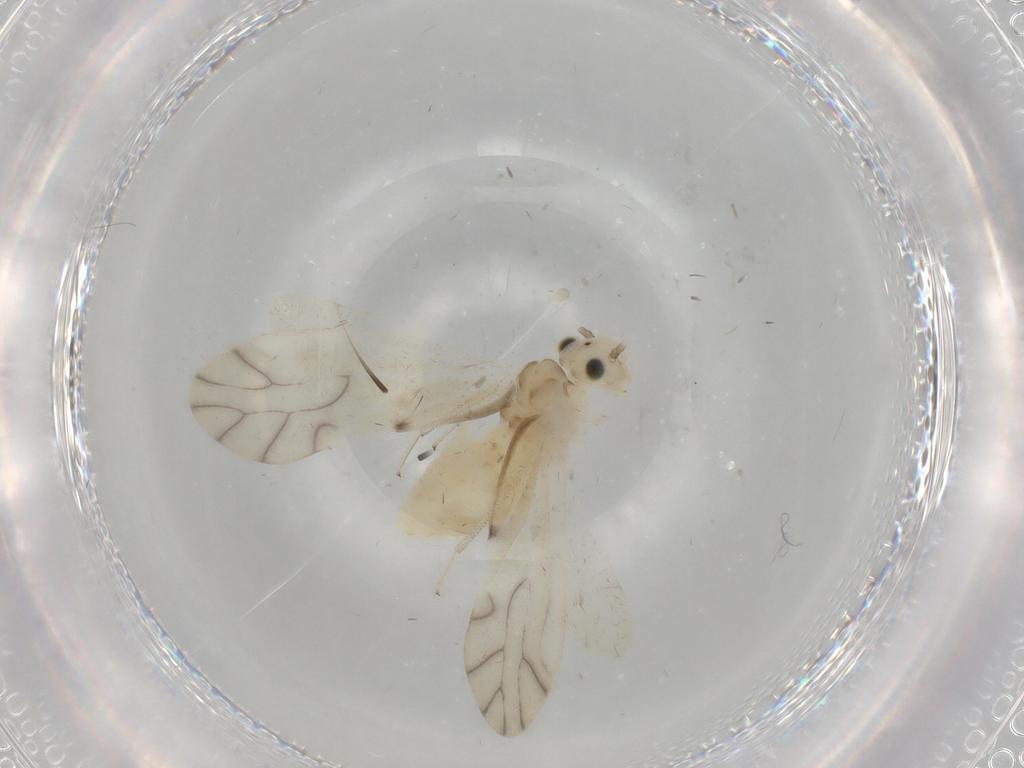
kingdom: Animalia
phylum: Arthropoda
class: Insecta
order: Psocodea
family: Caeciliusidae
